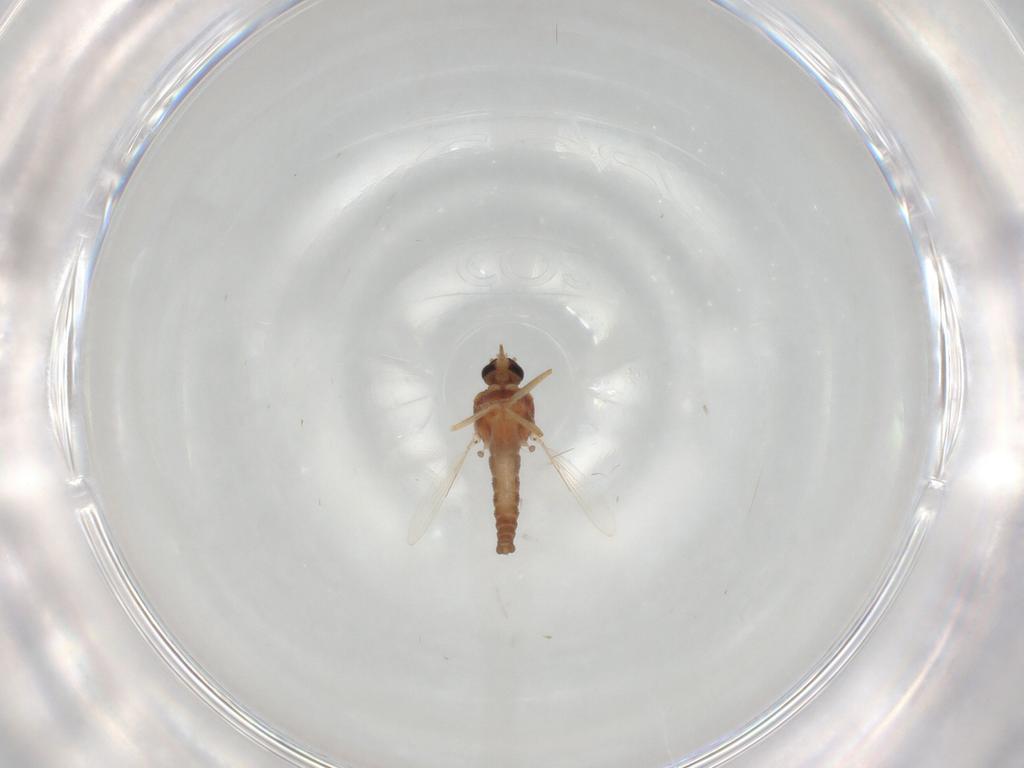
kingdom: Animalia
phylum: Arthropoda
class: Insecta
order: Diptera
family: Ceratopogonidae
